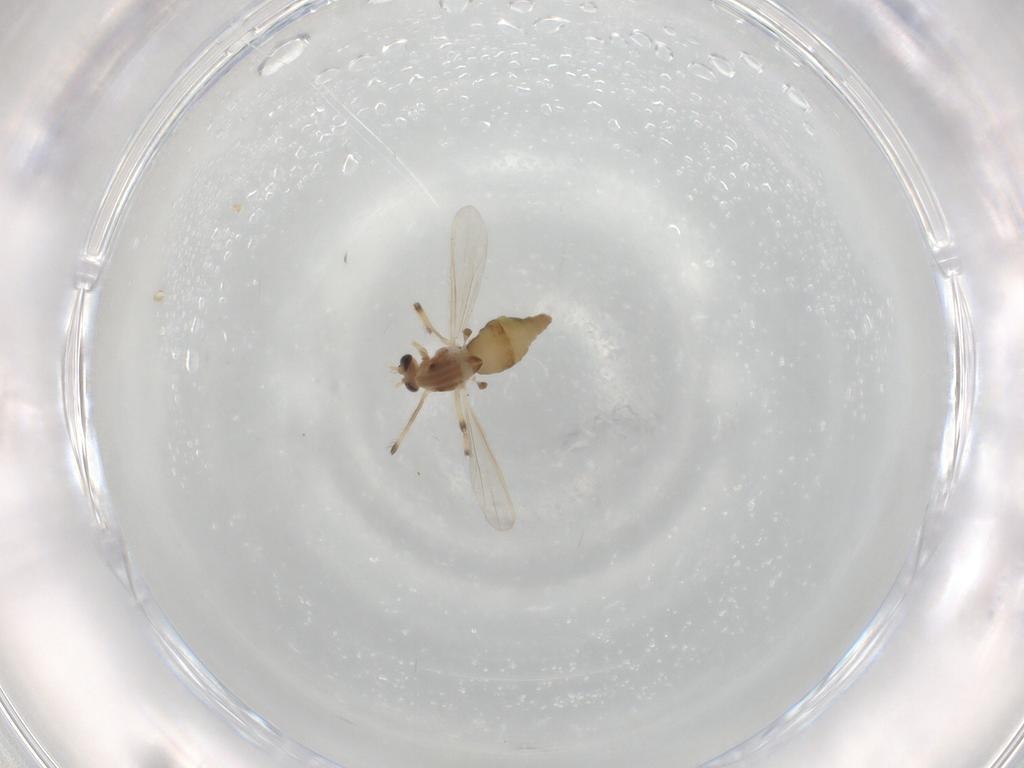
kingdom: Animalia
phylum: Arthropoda
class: Insecta
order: Diptera
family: Chironomidae
